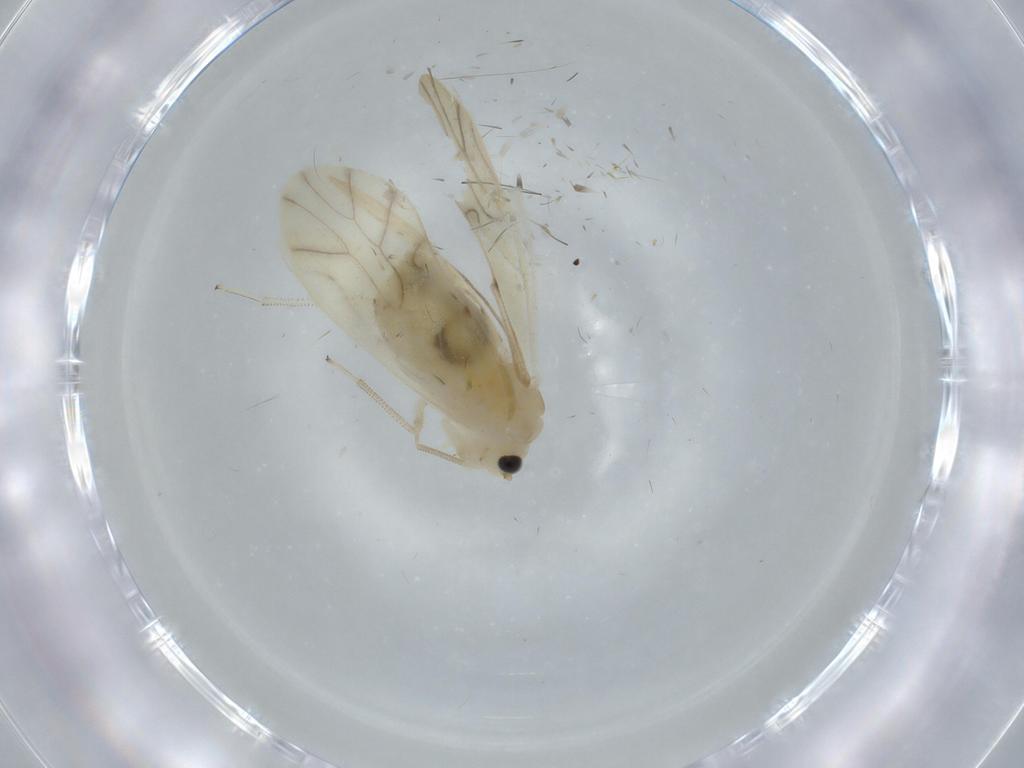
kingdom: Animalia
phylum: Arthropoda
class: Insecta
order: Psocodea
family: Caeciliusidae
